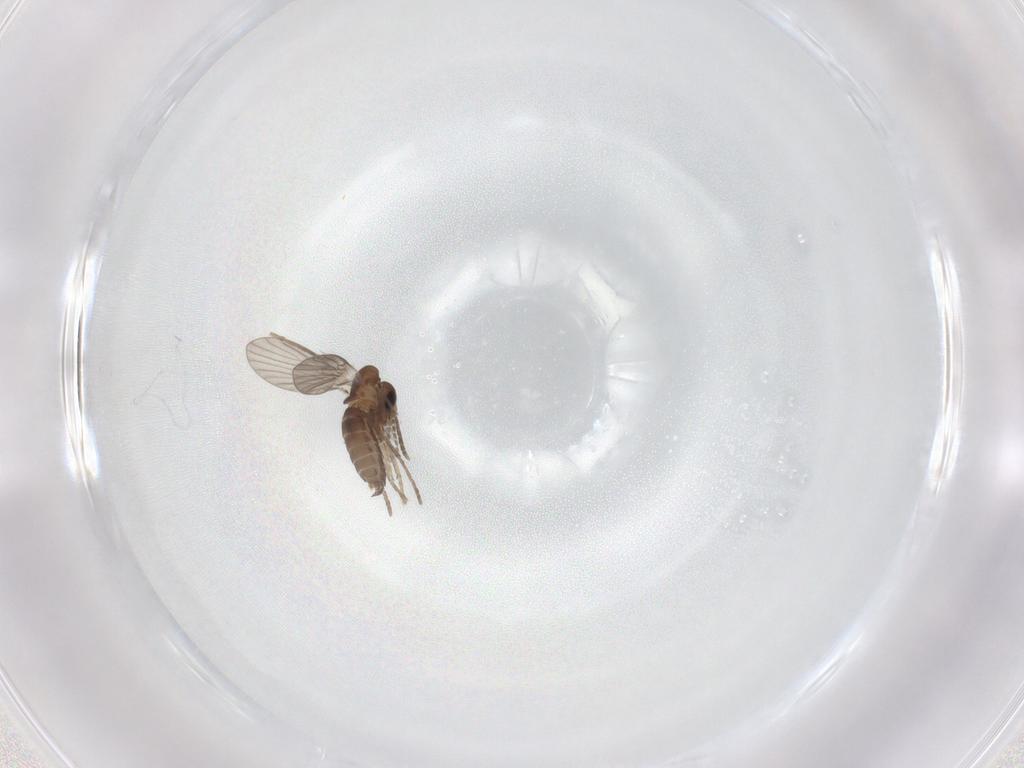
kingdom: Animalia
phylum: Arthropoda
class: Insecta
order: Diptera
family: Chironomidae
